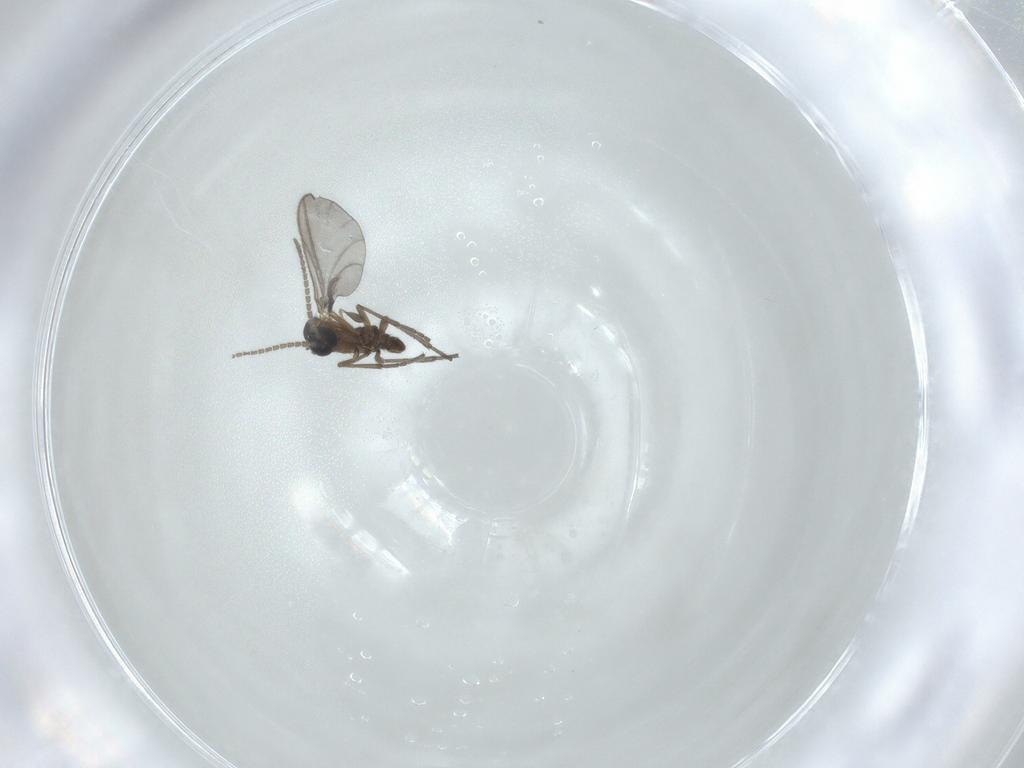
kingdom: Animalia
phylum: Arthropoda
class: Insecta
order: Diptera
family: Sciaridae
